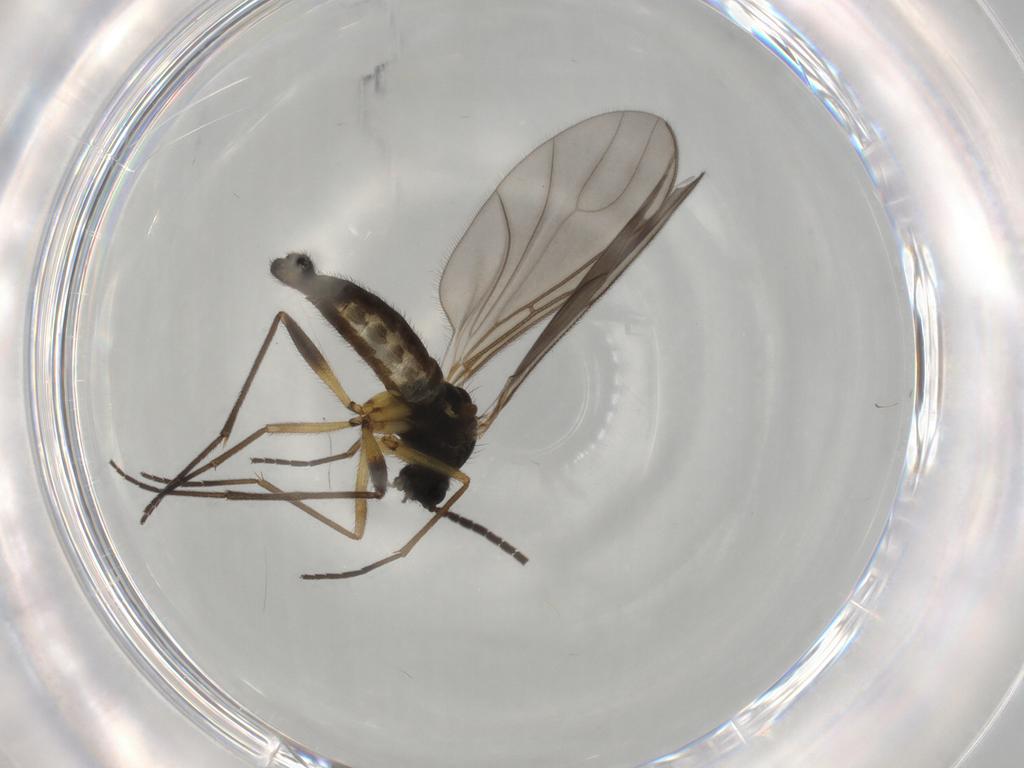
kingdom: Animalia
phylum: Arthropoda
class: Insecta
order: Diptera
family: Sciaridae
